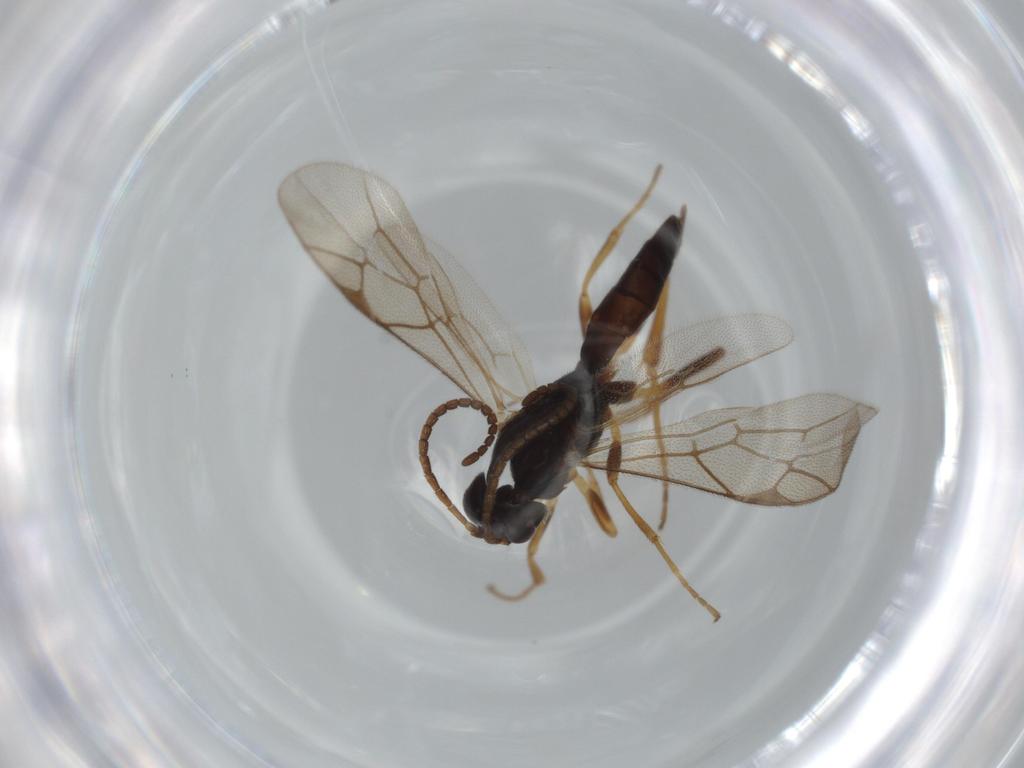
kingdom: Animalia
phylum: Arthropoda
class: Insecta
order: Hymenoptera
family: Ichneumonidae
